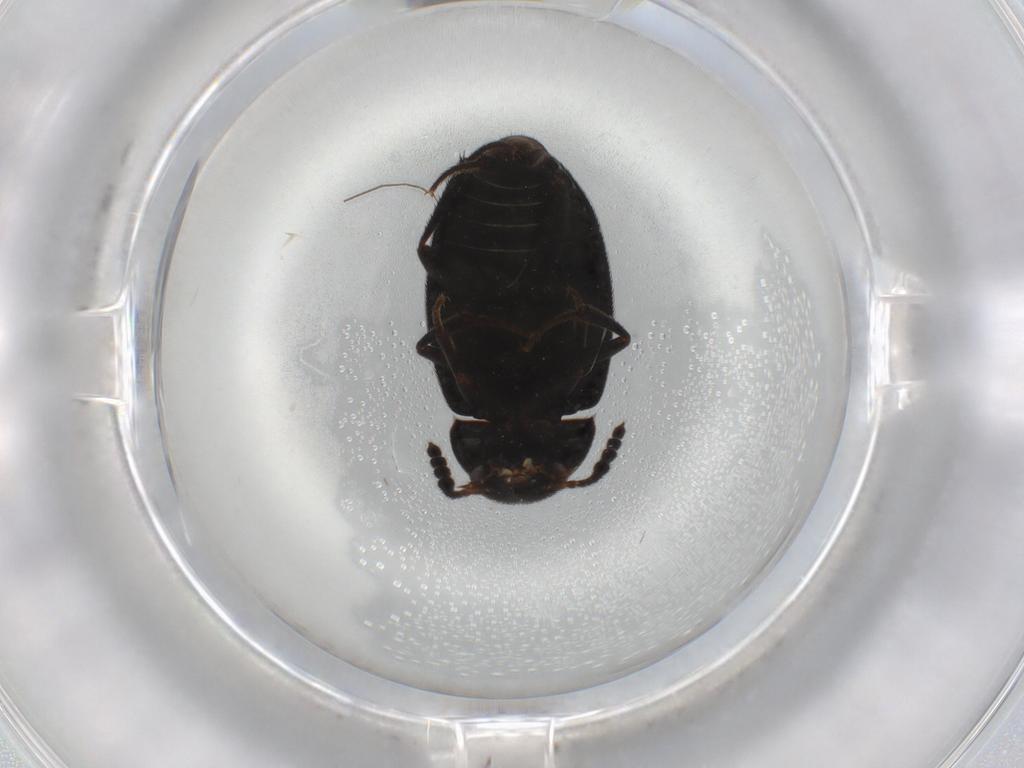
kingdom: Animalia
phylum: Arthropoda
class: Insecta
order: Coleoptera
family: Leiodidae
